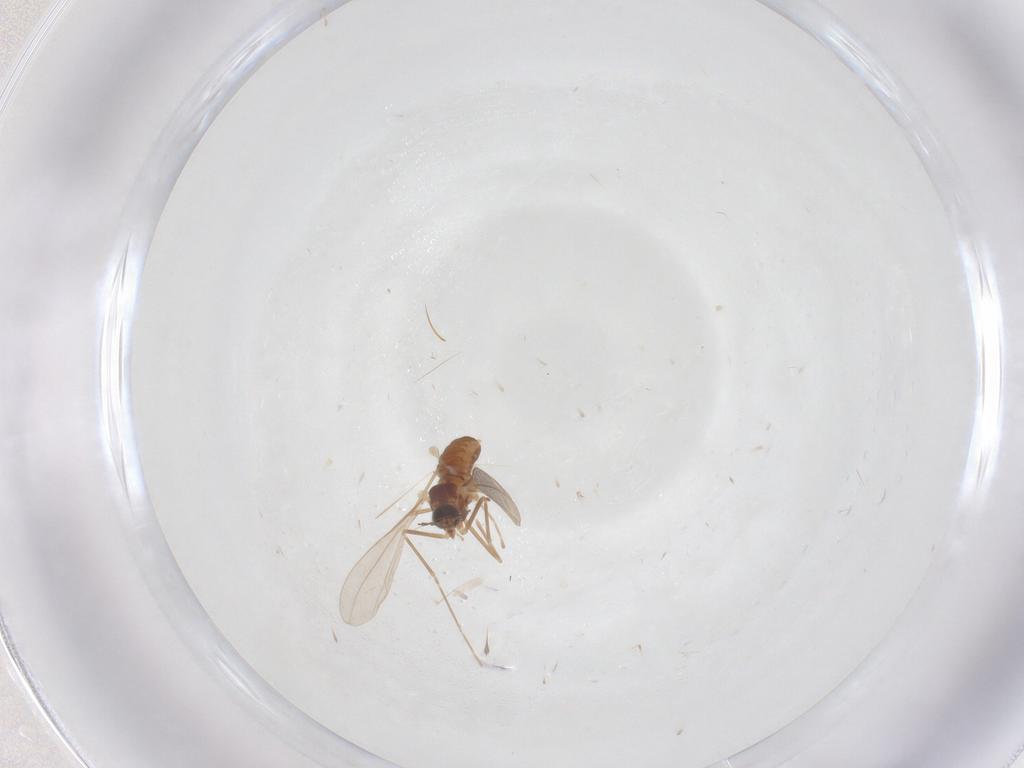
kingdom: Animalia
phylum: Arthropoda
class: Insecta
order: Diptera
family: Cecidomyiidae
